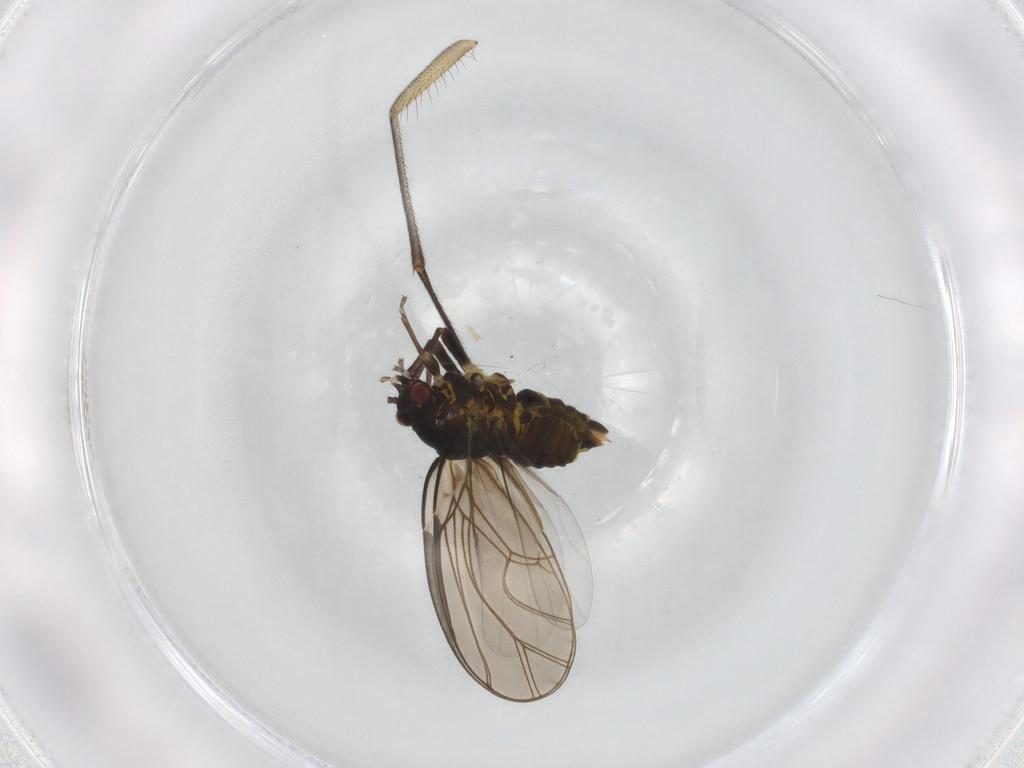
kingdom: Animalia
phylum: Arthropoda
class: Insecta
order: Hemiptera
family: Psylloidea_incertae_sedis
